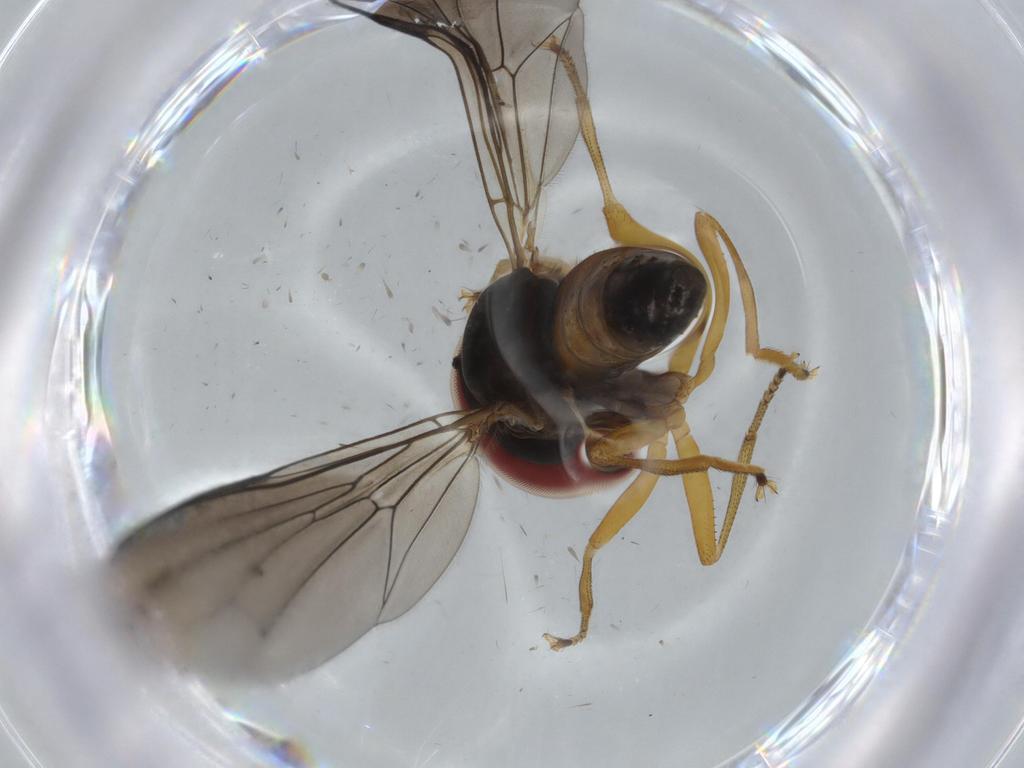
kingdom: Animalia
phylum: Arthropoda
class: Insecta
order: Diptera
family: Pipunculidae
